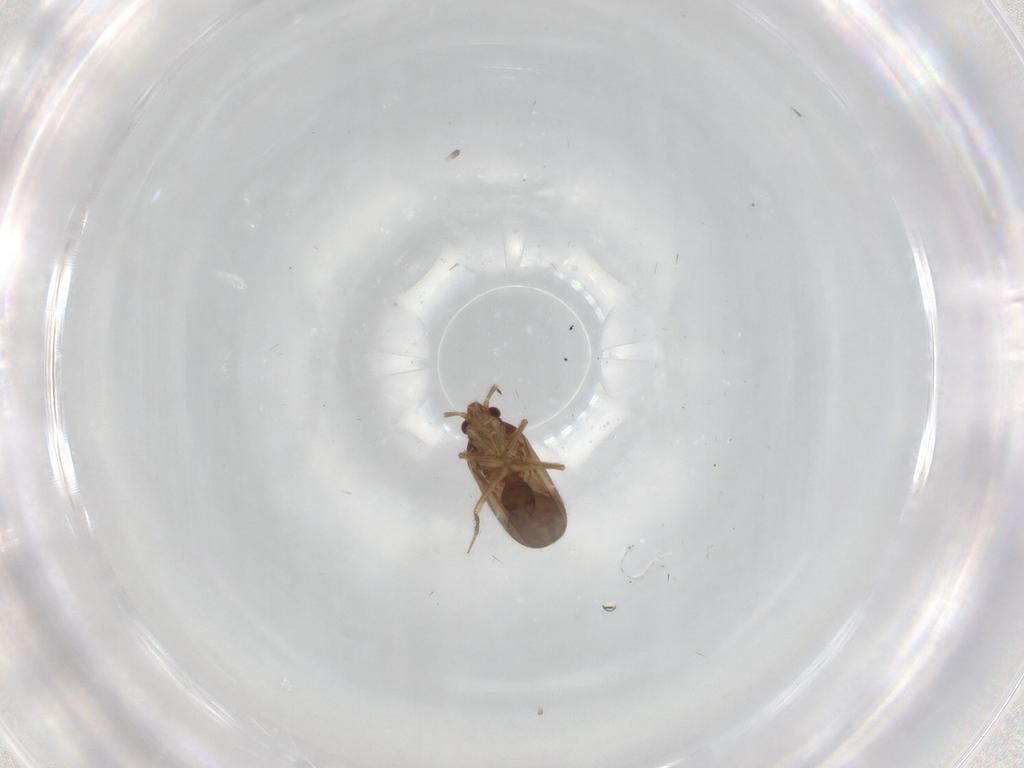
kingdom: Animalia
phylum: Arthropoda
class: Insecta
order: Hemiptera
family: Ceratocombidae
